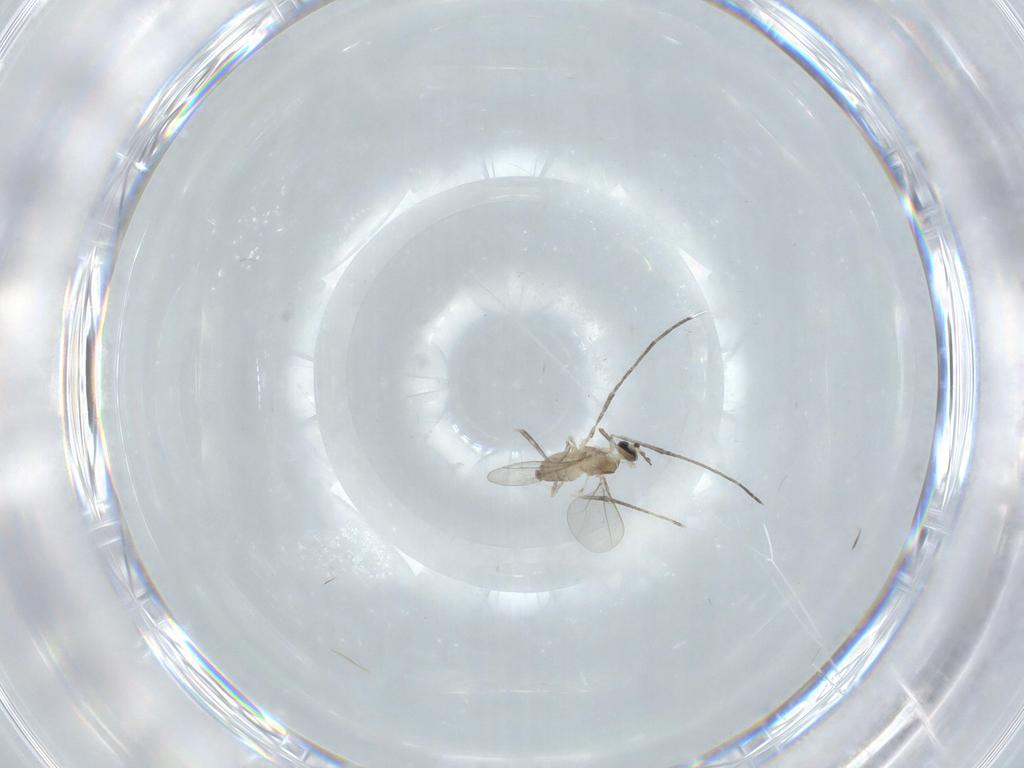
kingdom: Animalia
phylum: Arthropoda
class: Insecta
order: Diptera
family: Cecidomyiidae
